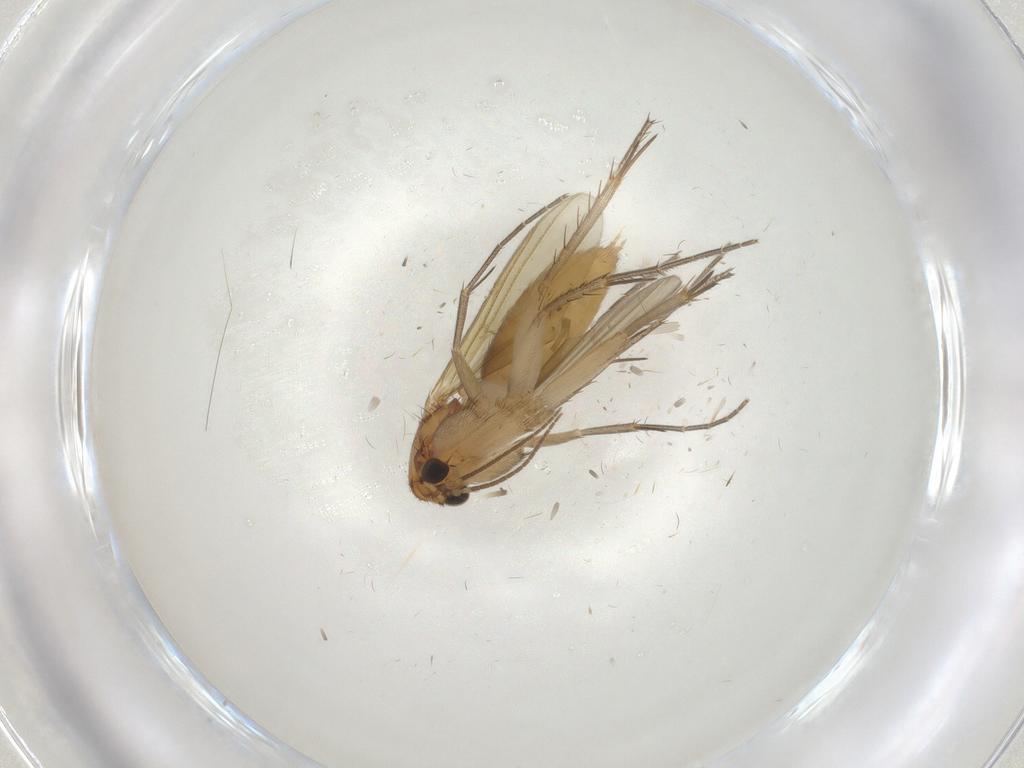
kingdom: Animalia
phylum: Arthropoda
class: Insecta
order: Diptera
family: Mycetophilidae
